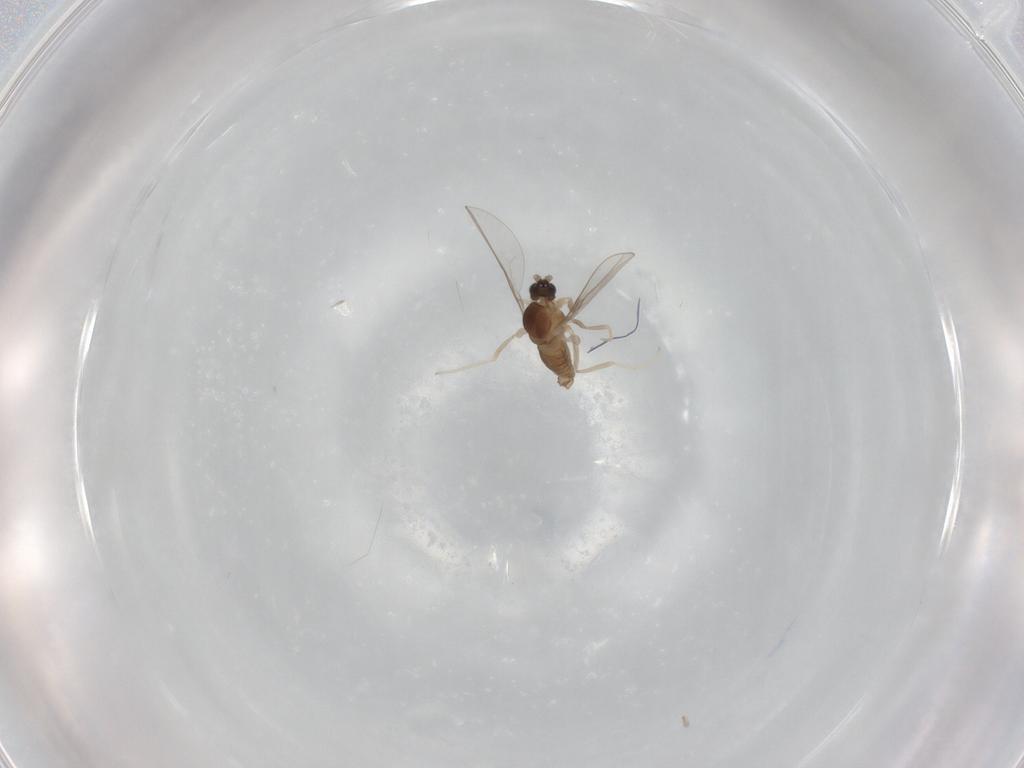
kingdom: Animalia
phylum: Arthropoda
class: Insecta
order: Diptera
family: Cecidomyiidae
